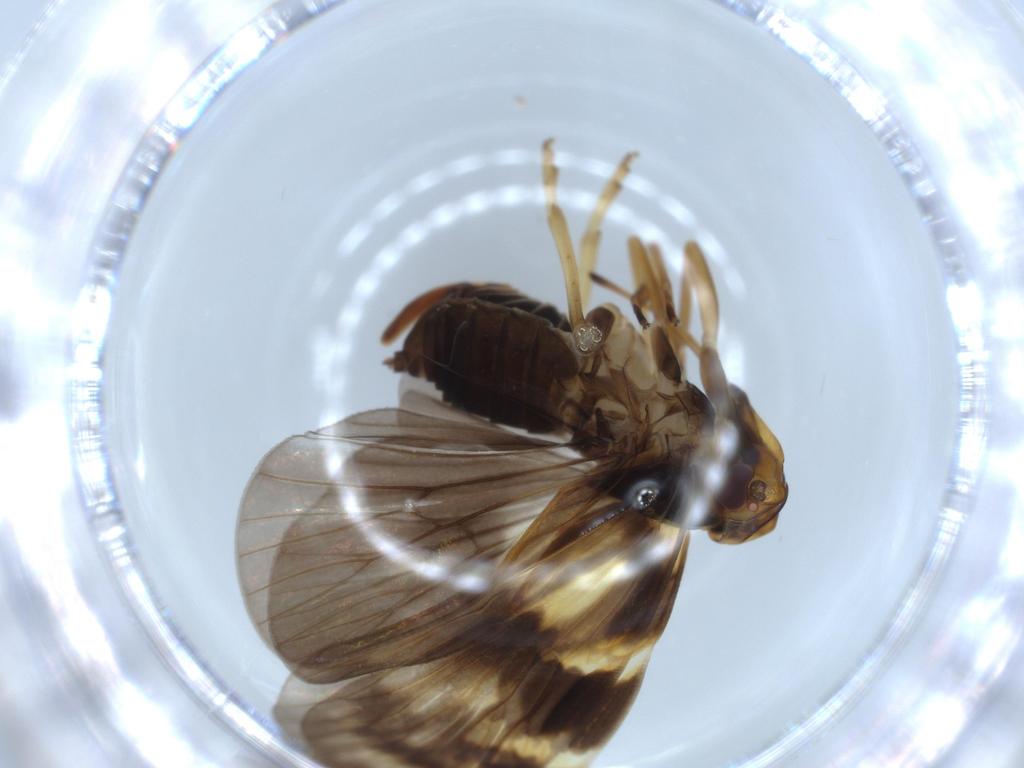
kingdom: Animalia
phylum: Arthropoda
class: Insecta
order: Hemiptera
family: Cixiidae
